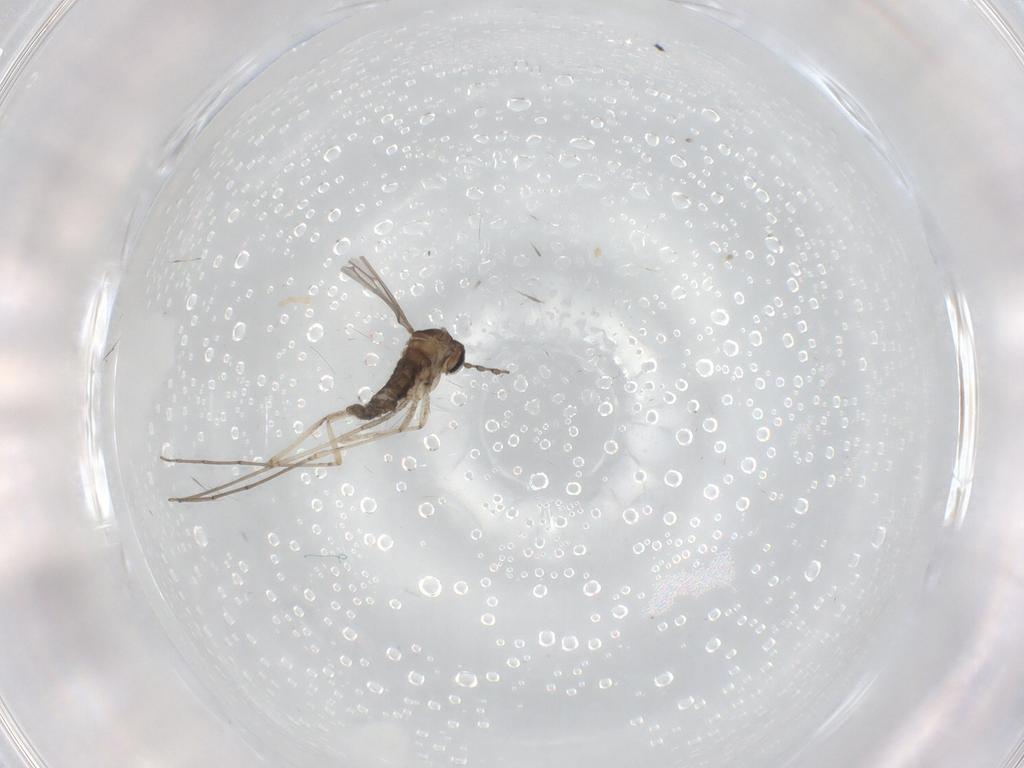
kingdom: Animalia
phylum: Arthropoda
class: Insecta
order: Diptera
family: Cecidomyiidae
